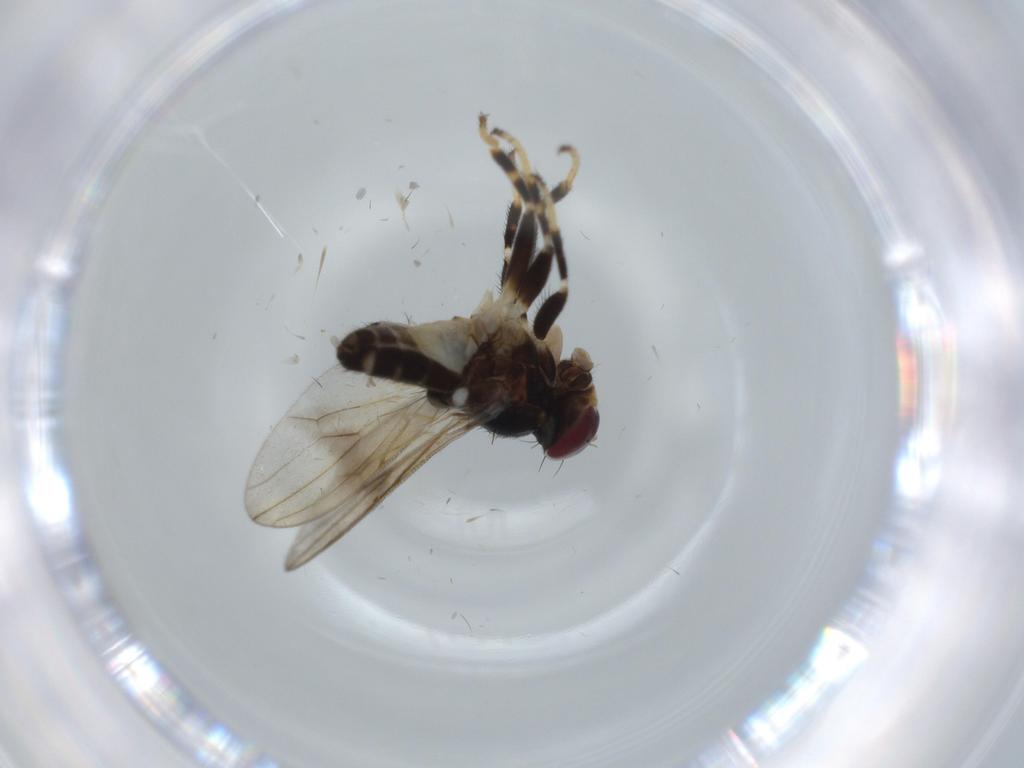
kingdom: Animalia
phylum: Arthropoda
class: Insecta
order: Diptera
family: Ephydridae
